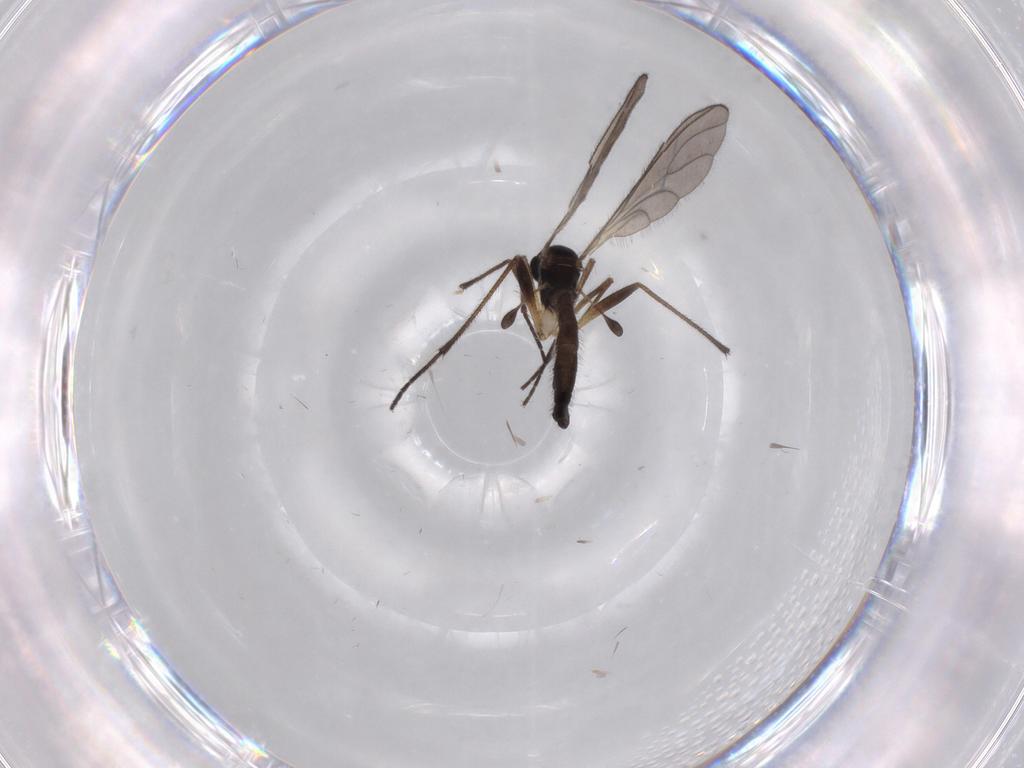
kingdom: Animalia
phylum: Arthropoda
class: Insecta
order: Diptera
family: Sciaridae
